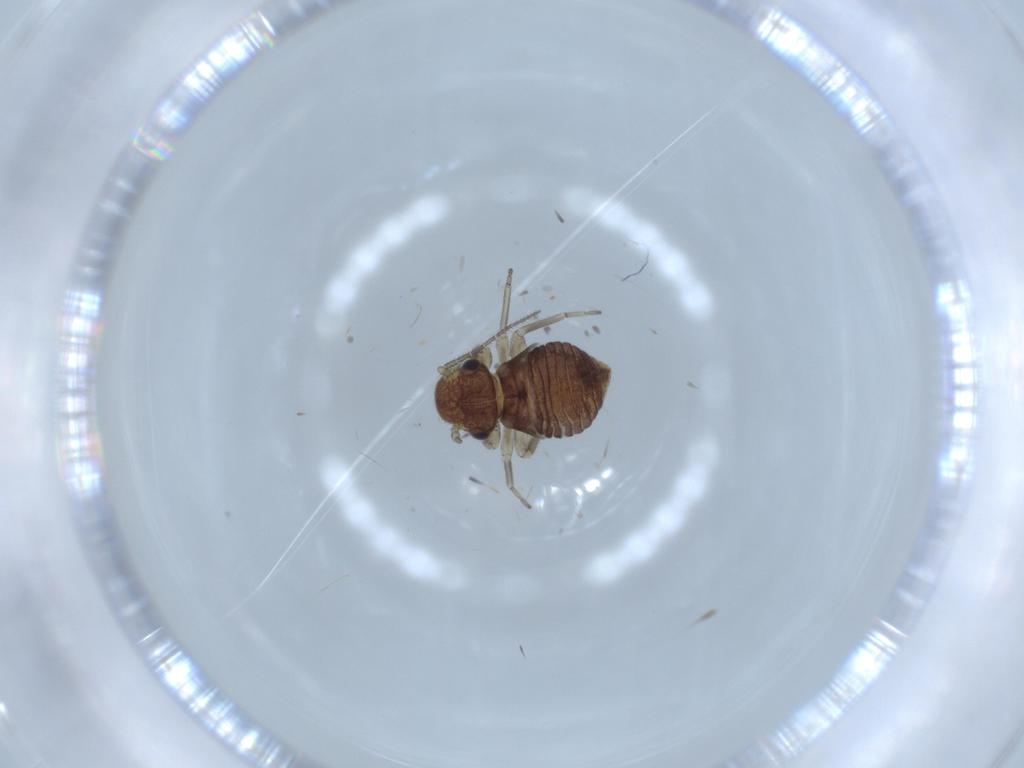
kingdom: Animalia
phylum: Arthropoda
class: Insecta
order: Psocodea
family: Myopsocidae
